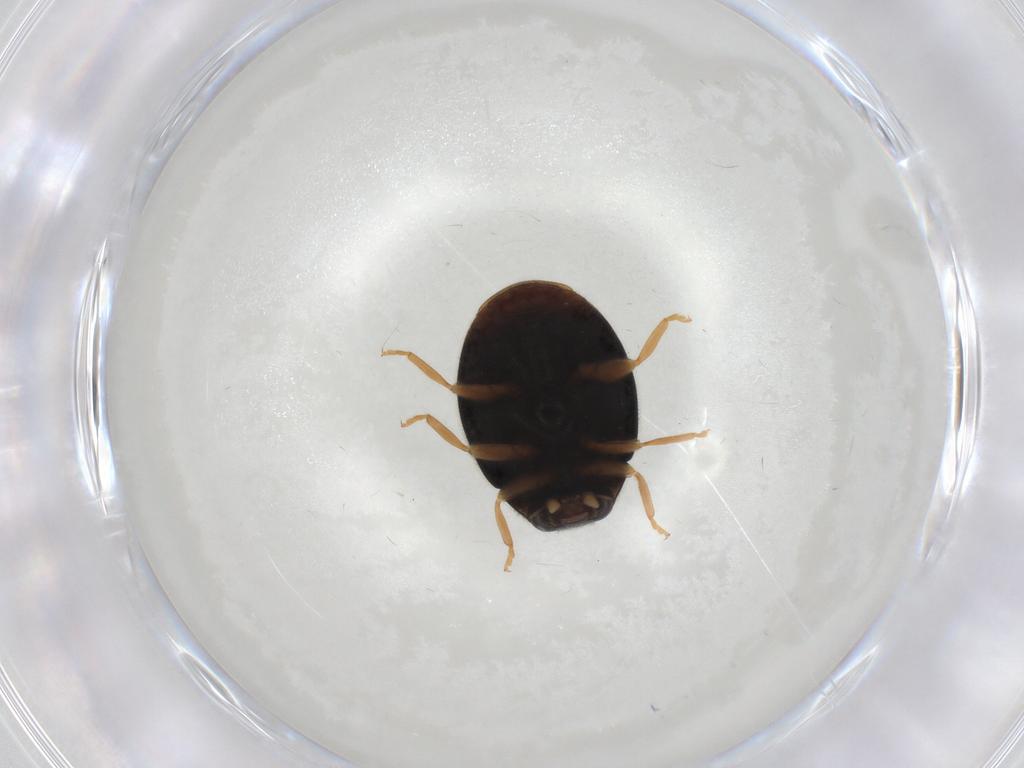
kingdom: Animalia
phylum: Arthropoda
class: Insecta
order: Coleoptera
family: Coccinellidae
